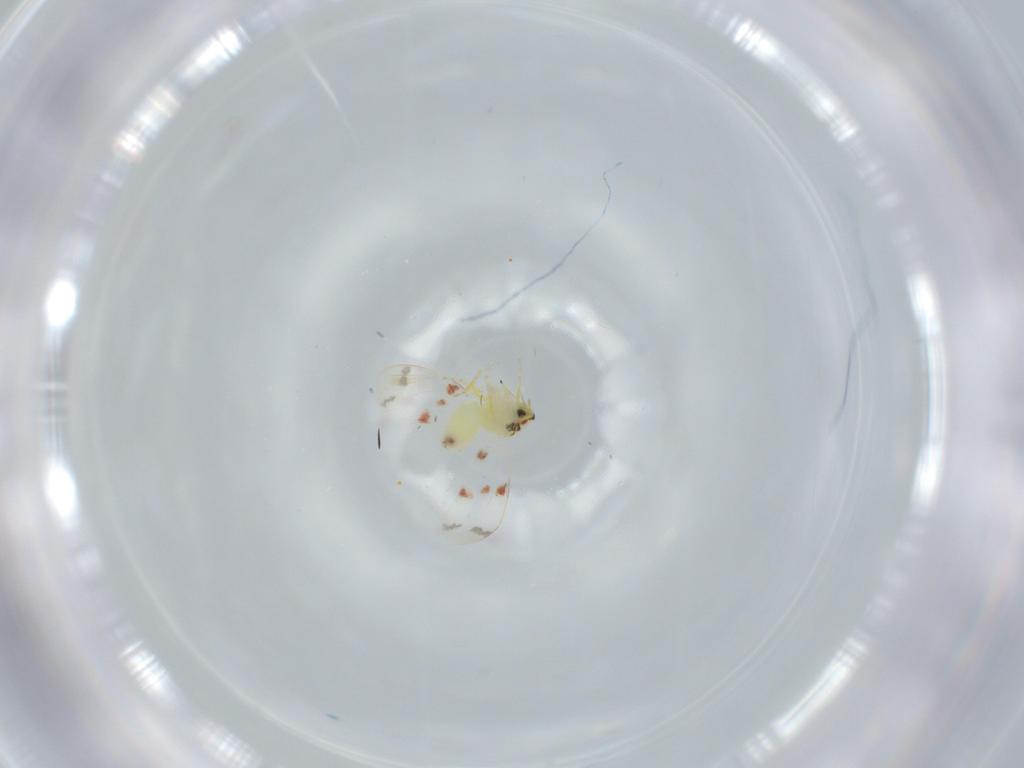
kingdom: Animalia
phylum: Arthropoda
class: Insecta
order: Hemiptera
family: Aleyrodidae
